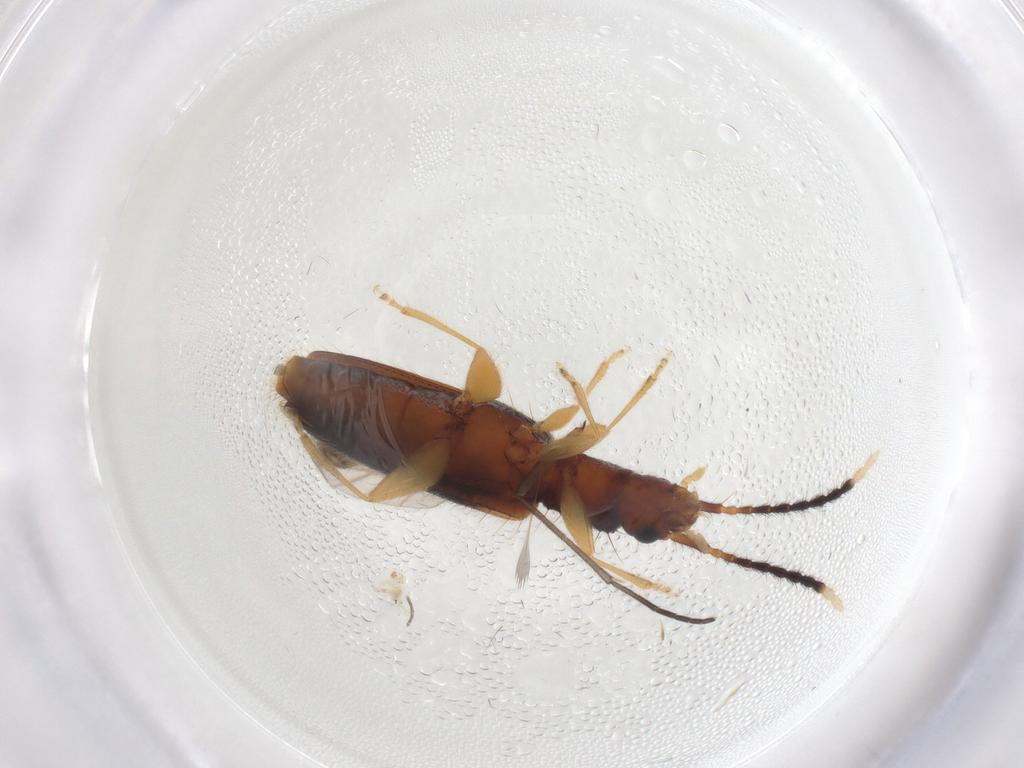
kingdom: Animalia
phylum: Arthropoda
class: Insecta
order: Coleoptera
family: Silvanidae
